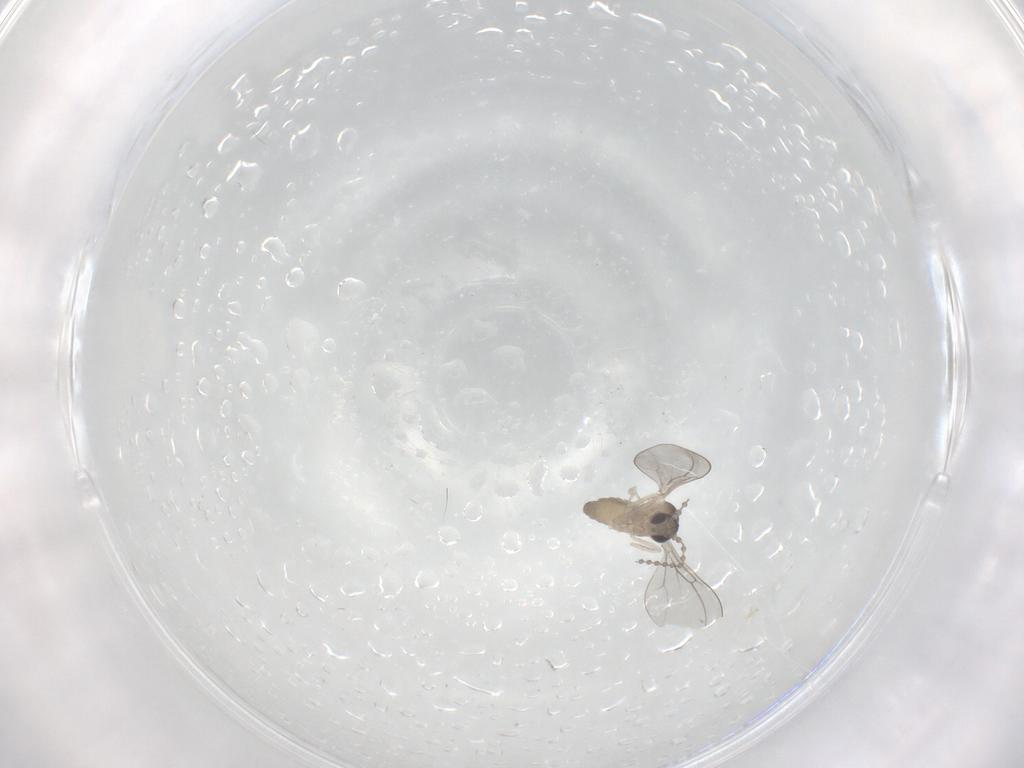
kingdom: Animalia
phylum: Arthropoda
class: Insecta
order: Diptera
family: Cecidomyiidae
